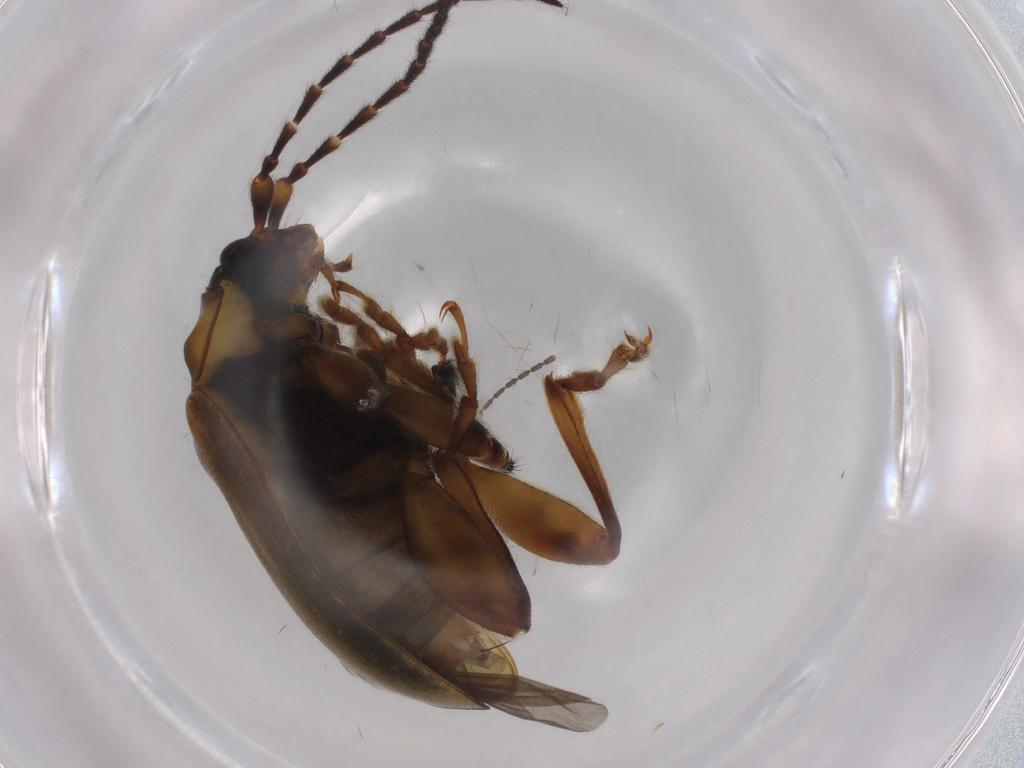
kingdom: Animalia
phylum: Arthropoda
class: Insecta
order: Coleoptera
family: Chrysomelidae
